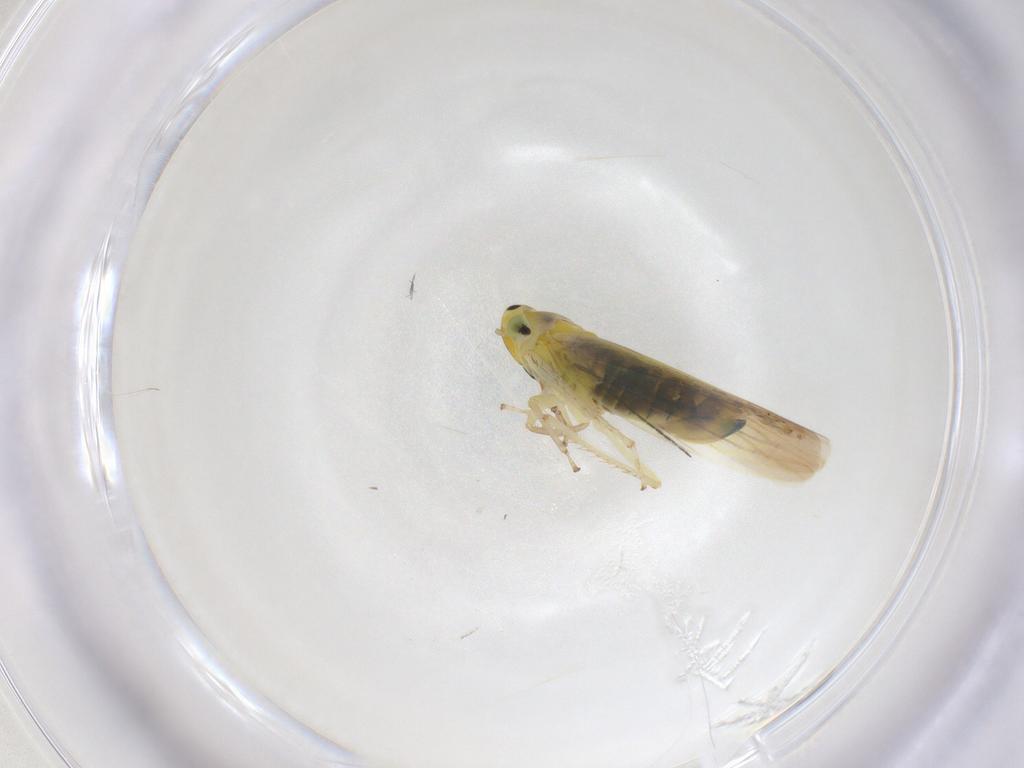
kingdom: Animalia
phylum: Arthropoda
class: Insecta
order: Hemiptera
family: Cicadellidae
